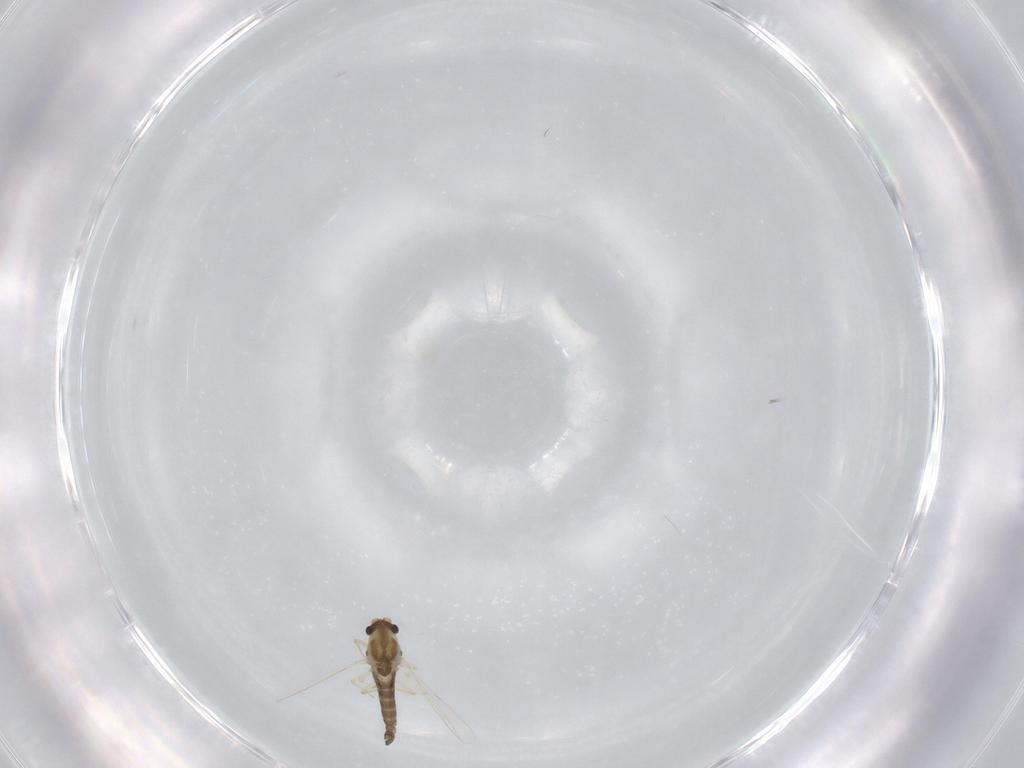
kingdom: Animalia
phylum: Arthropoda
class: Insecta
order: Diptera
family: Chironomidae
